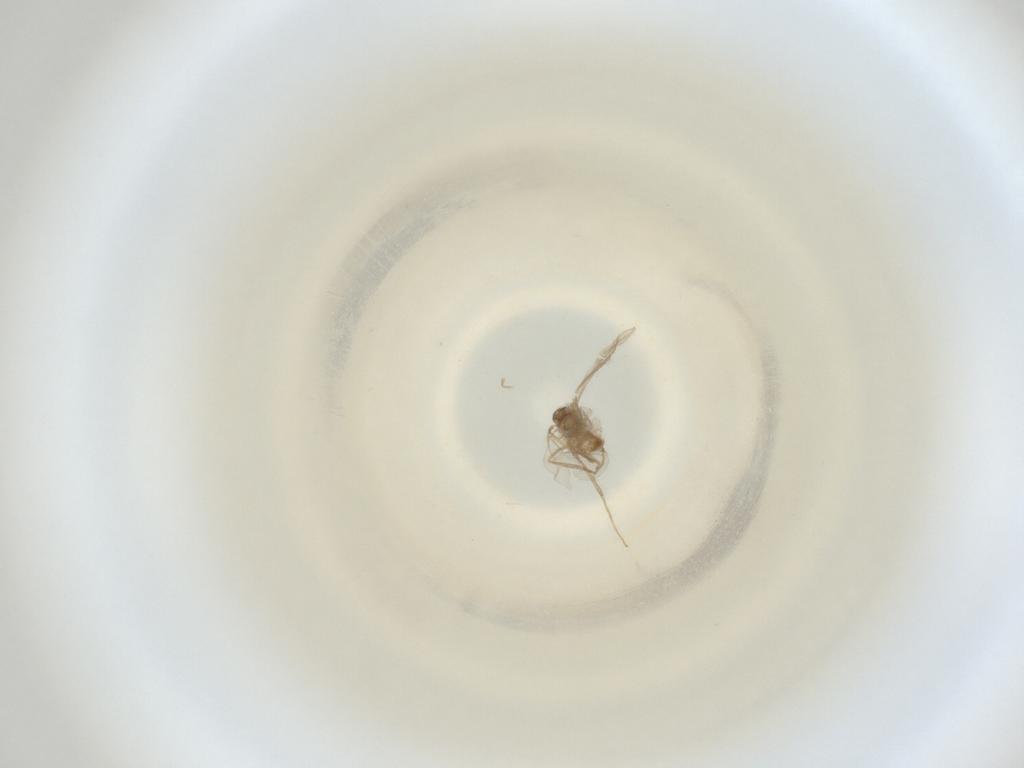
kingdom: Animalia
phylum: Arthropoda
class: Insecta
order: Diptera
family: Cecidomyiidae
